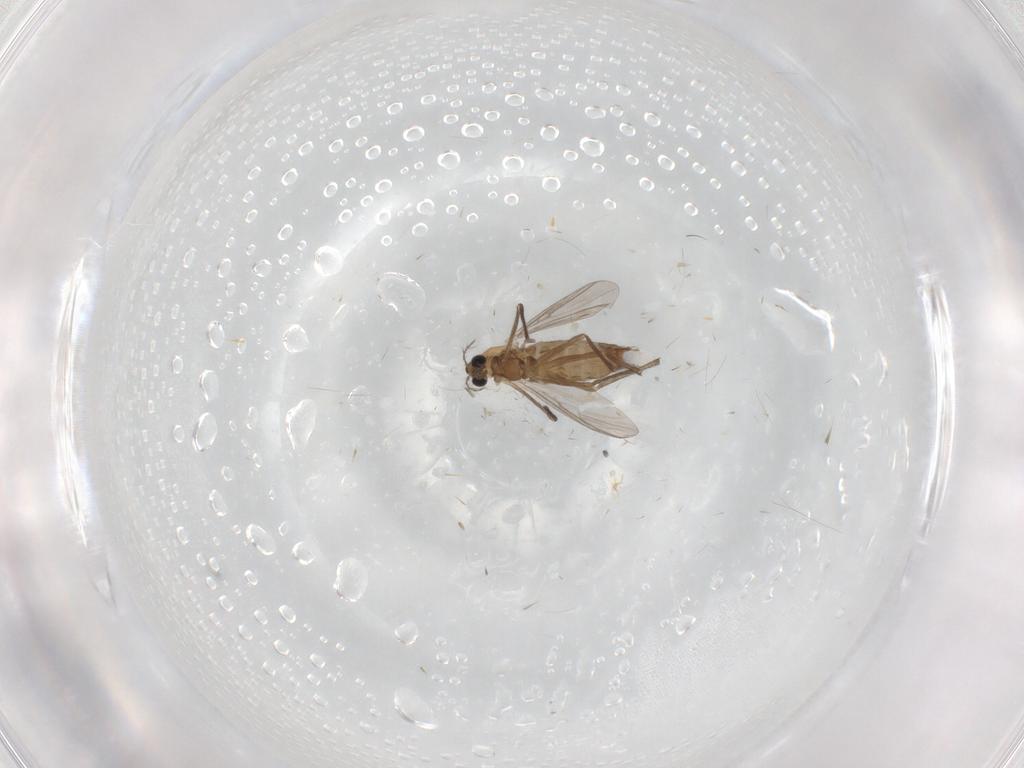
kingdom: Animalia
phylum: Arthropoda
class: Insecta
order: Diptera
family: Chironomidae
